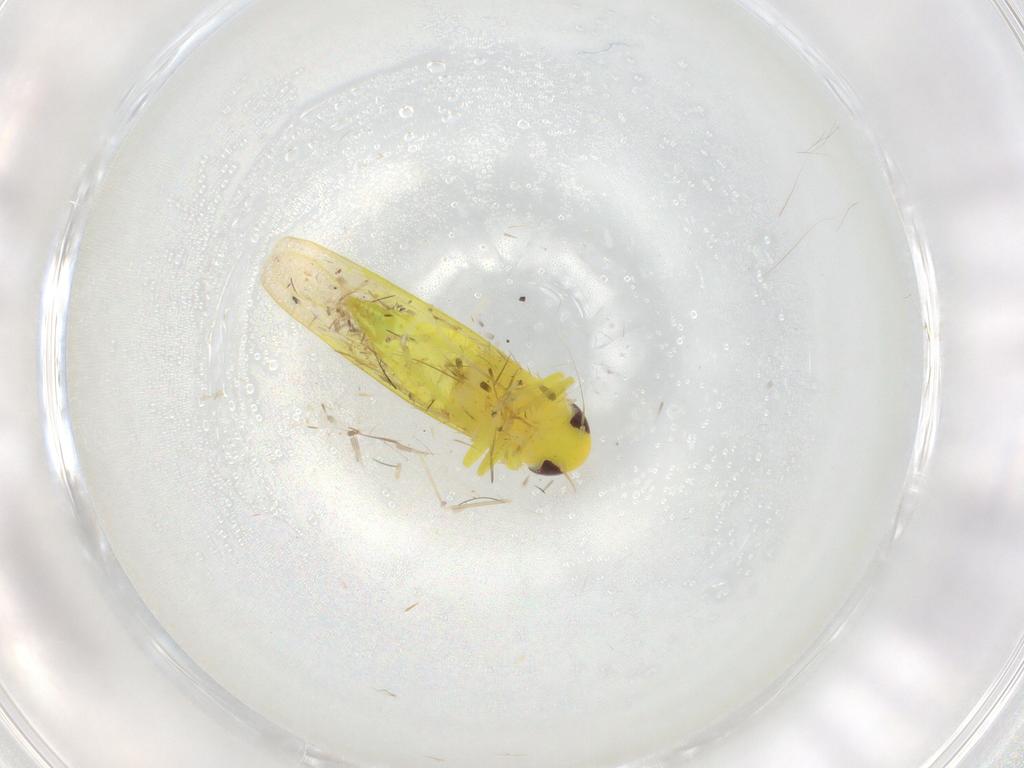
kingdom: Animalia
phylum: Arthropoda
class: Insecta
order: Hemiptera
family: Cicadellidae
